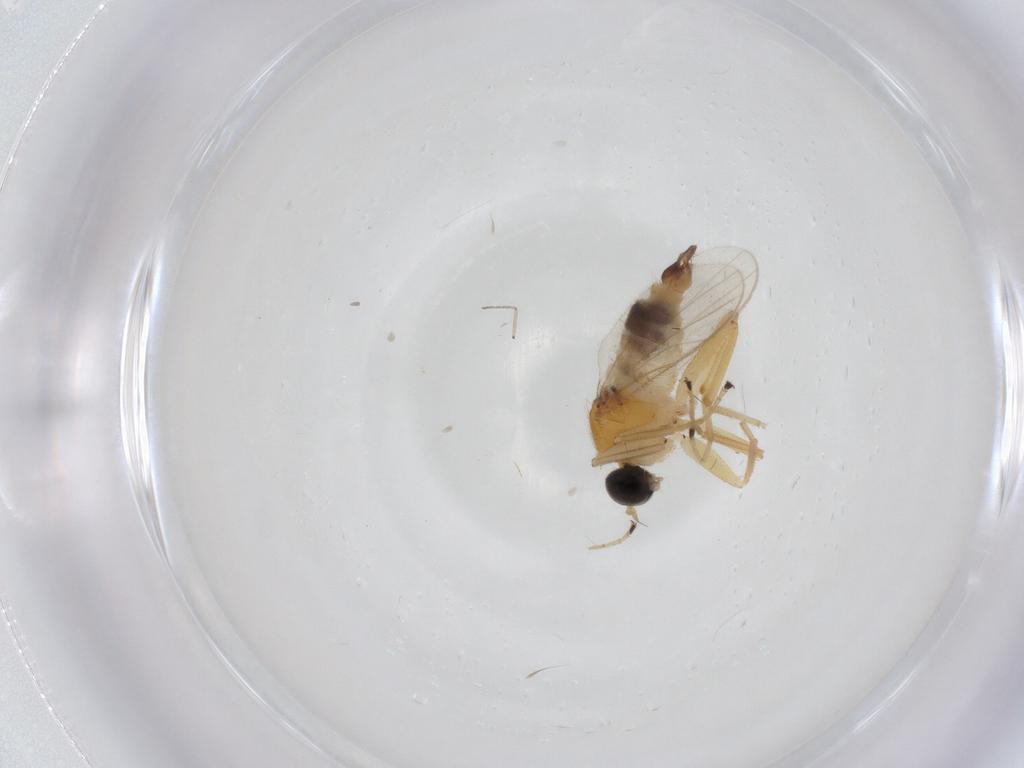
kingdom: Animalia
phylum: Arthropoda
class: Insecta
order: Diptera
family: Hybotidae
